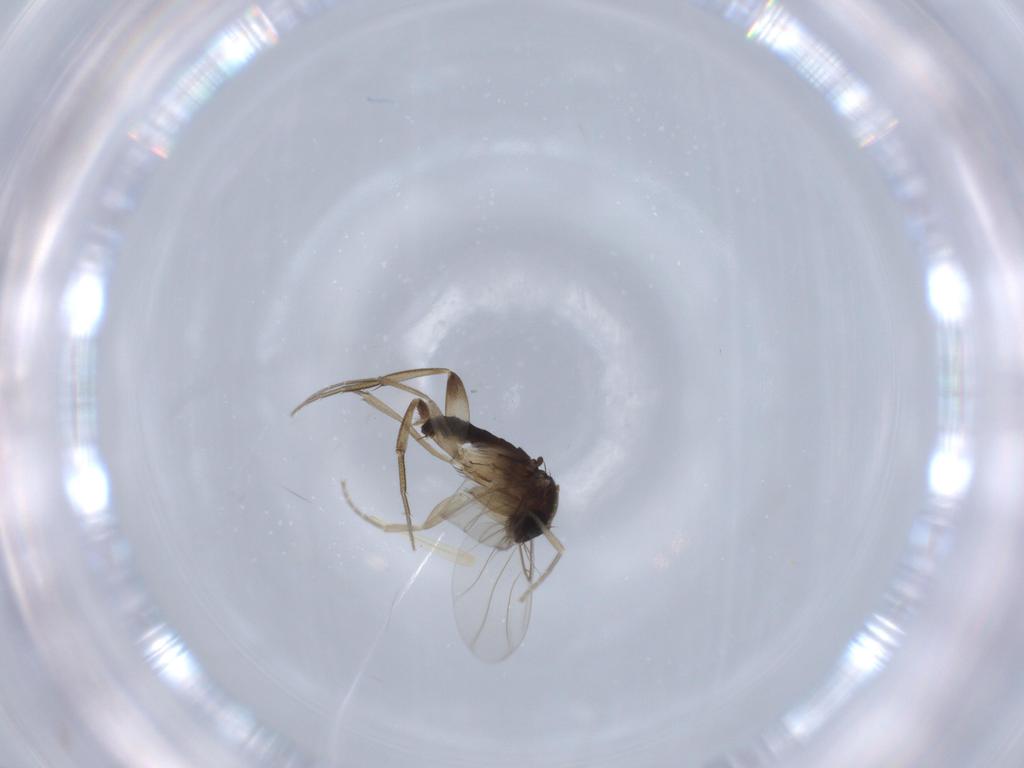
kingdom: Animalia
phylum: Arthropoda
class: Insecta
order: Diptera
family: Phoridae
